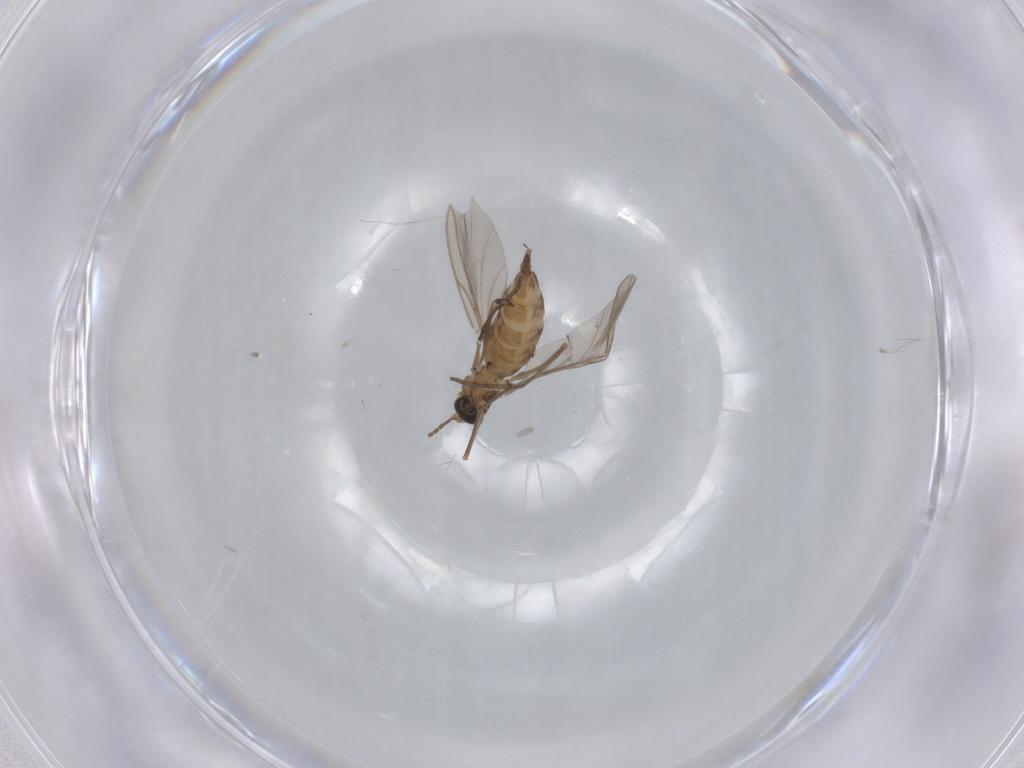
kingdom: Animalia
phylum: Arthropoda
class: Insecta
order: Diptera
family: Sciaridae
